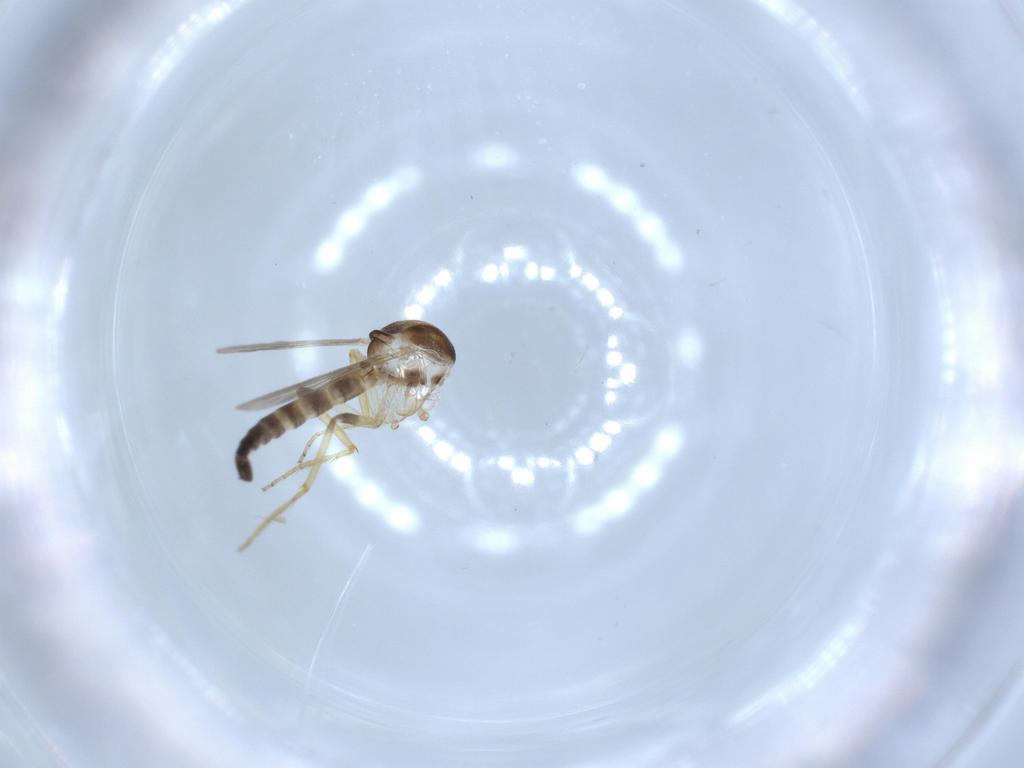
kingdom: Animalia
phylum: Arthropoda
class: Insecta
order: Diptera
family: Ceratopogonidae
